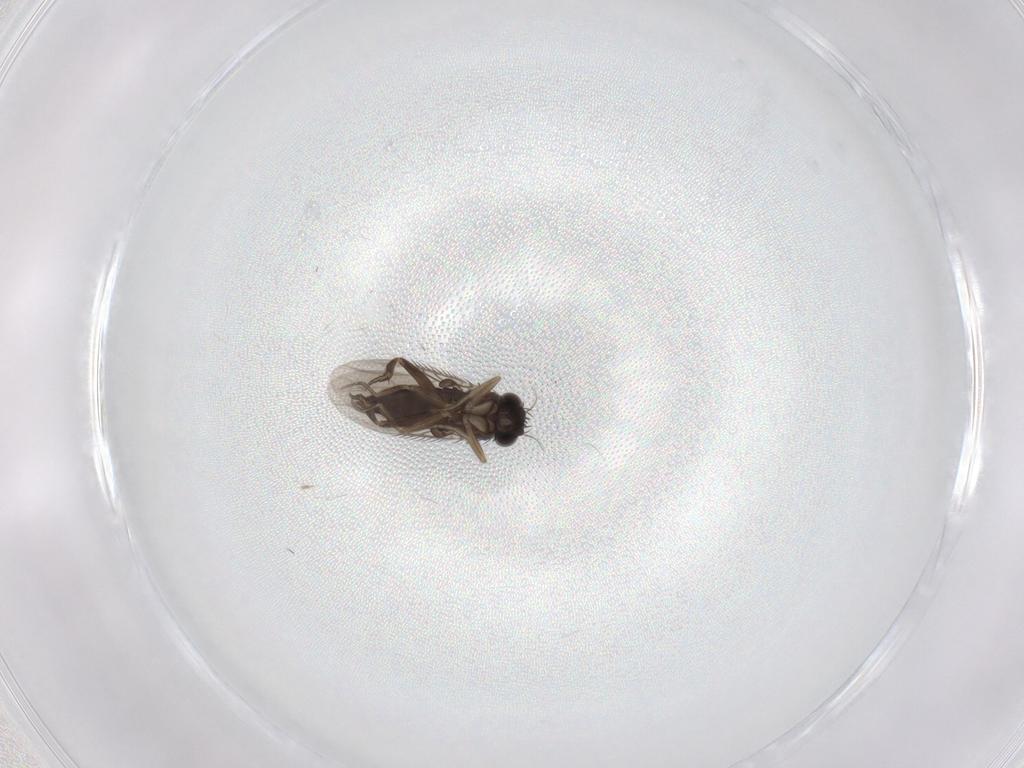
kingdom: Animalia
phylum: Arthropoda
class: Insecta
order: Diptera
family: Phoridae
